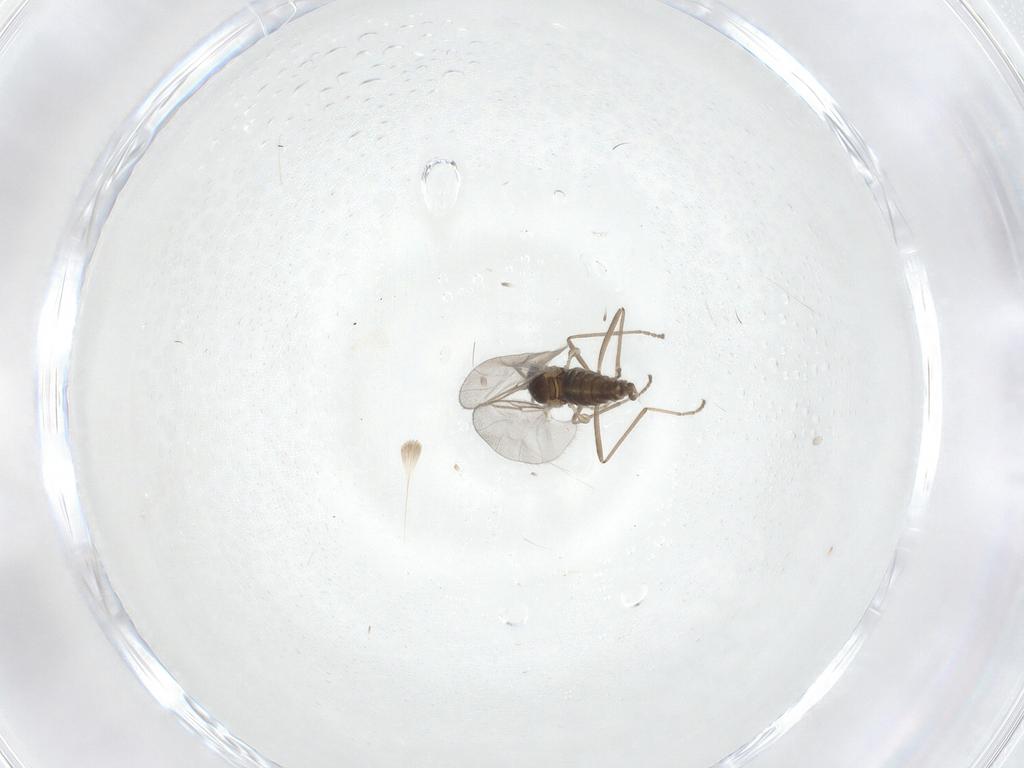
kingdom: Animalia
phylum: Arthropoda
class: Insecta
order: Diptera
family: Cecidomyiidae
